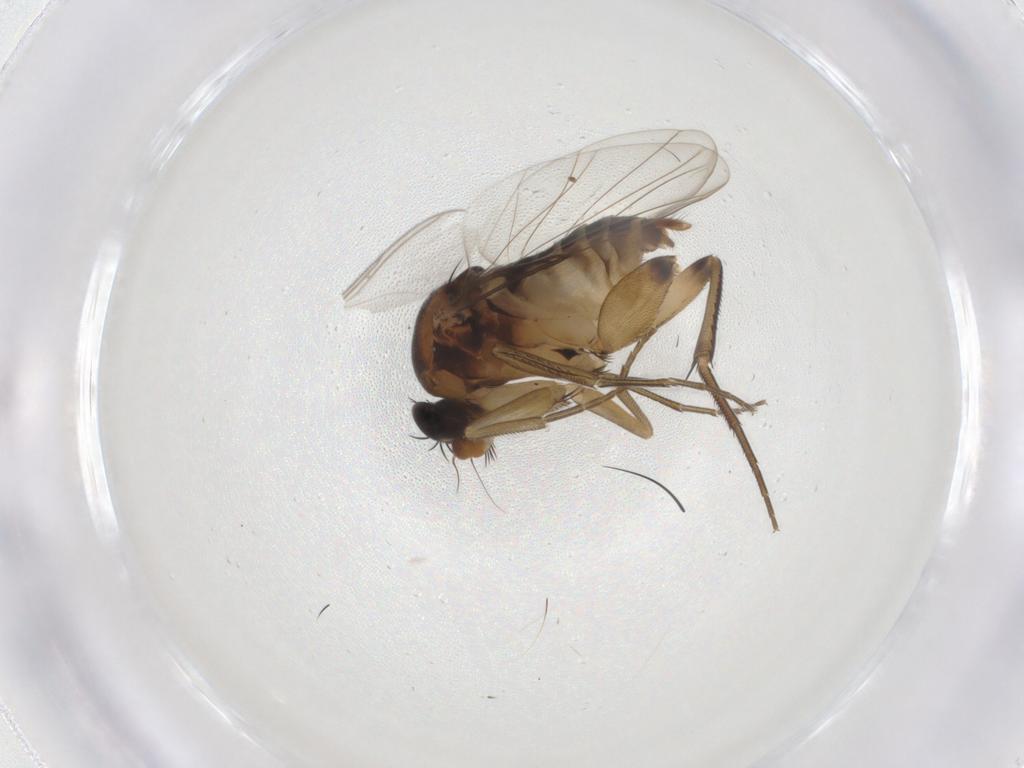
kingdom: Animalia
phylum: Arthropoda
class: Insecta
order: Diptera
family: Phoridae
